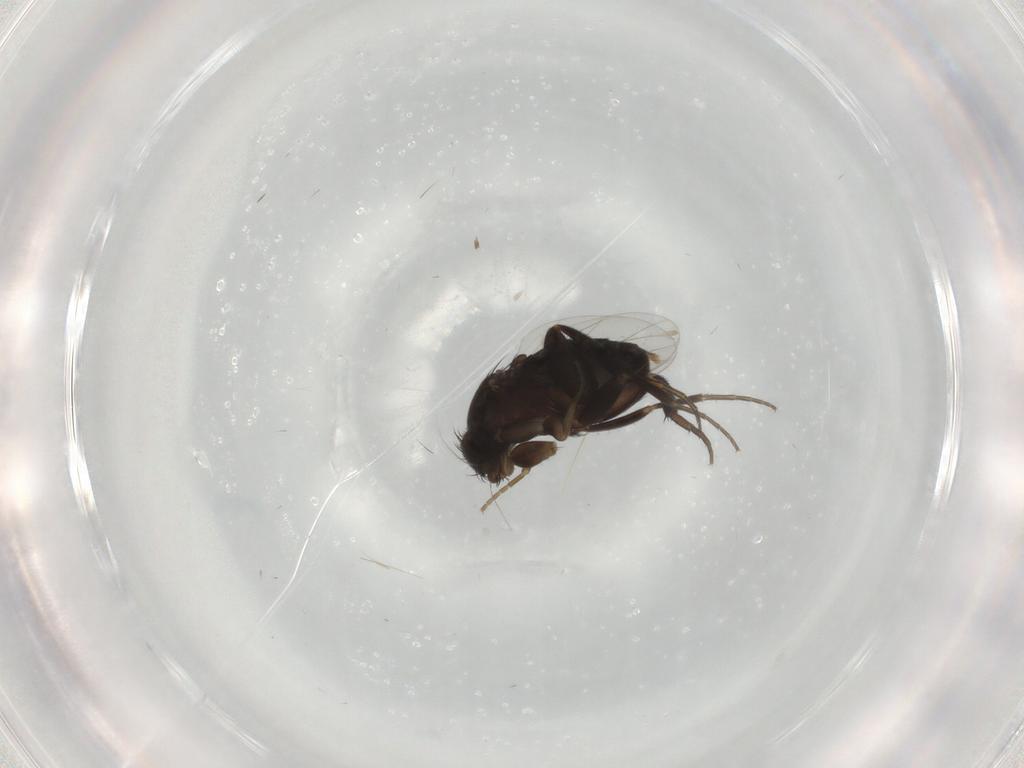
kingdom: Animalia
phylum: Arthropoda
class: Insecta
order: Diptera
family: Phoridae
